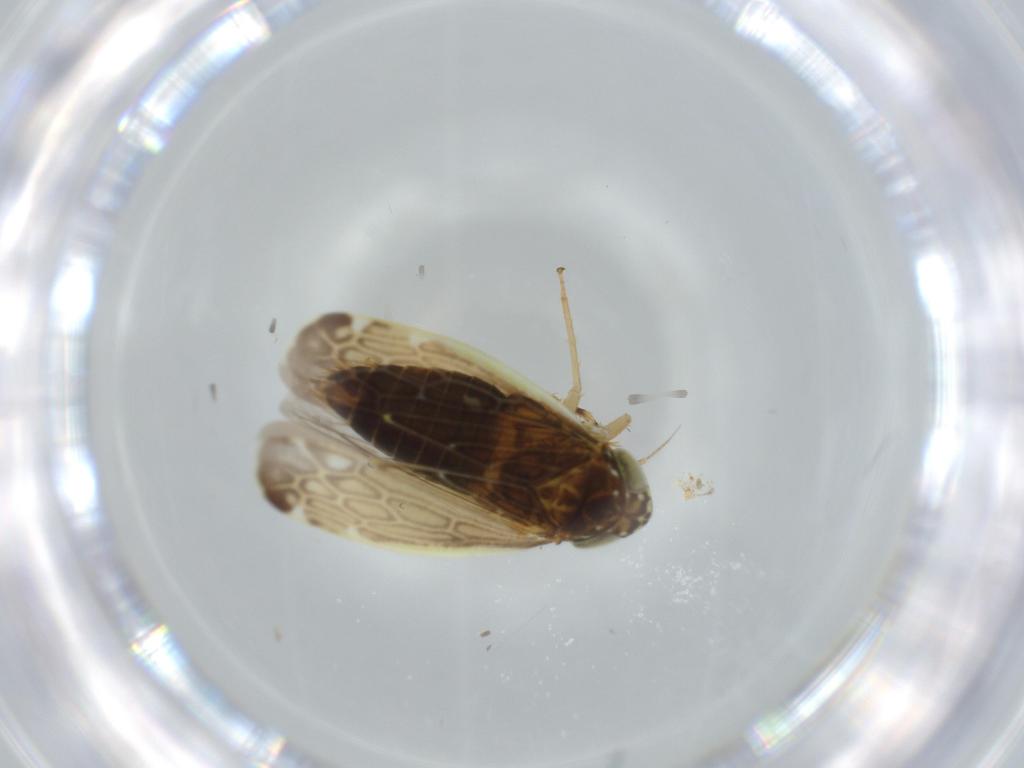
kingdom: Animalia
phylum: Arthropoda
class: Insecta
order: Hemiptera
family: Cicadellidae
